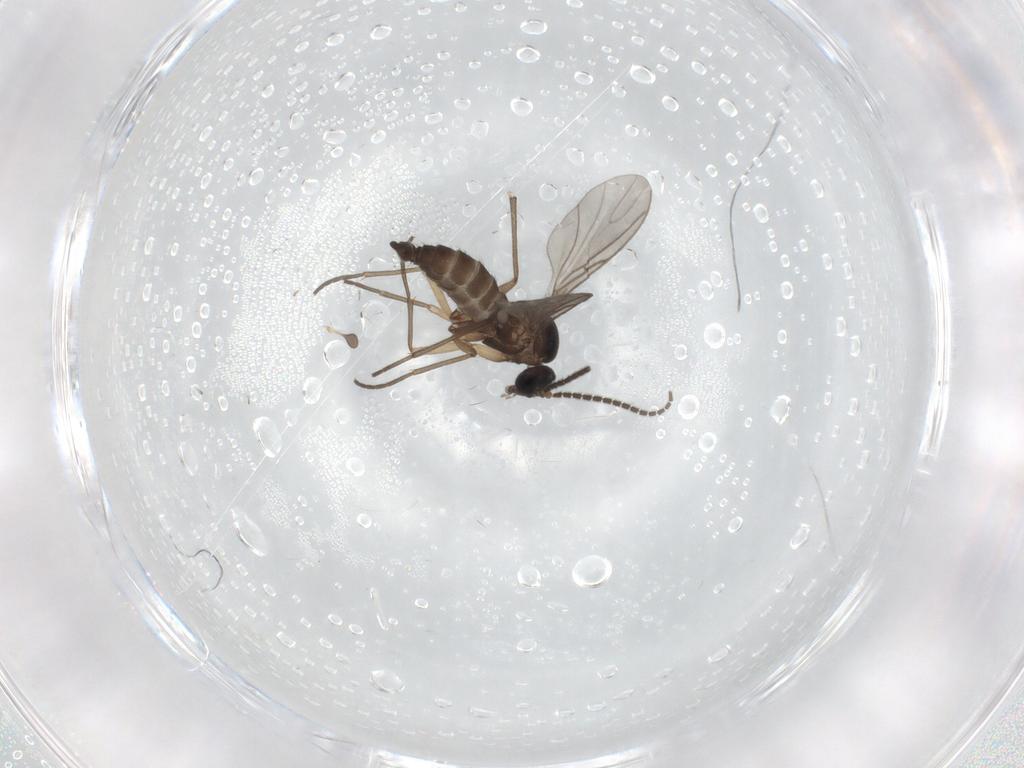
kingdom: Animalia
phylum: Arthropoda
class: Insecta
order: Diptera
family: Sciaridae
